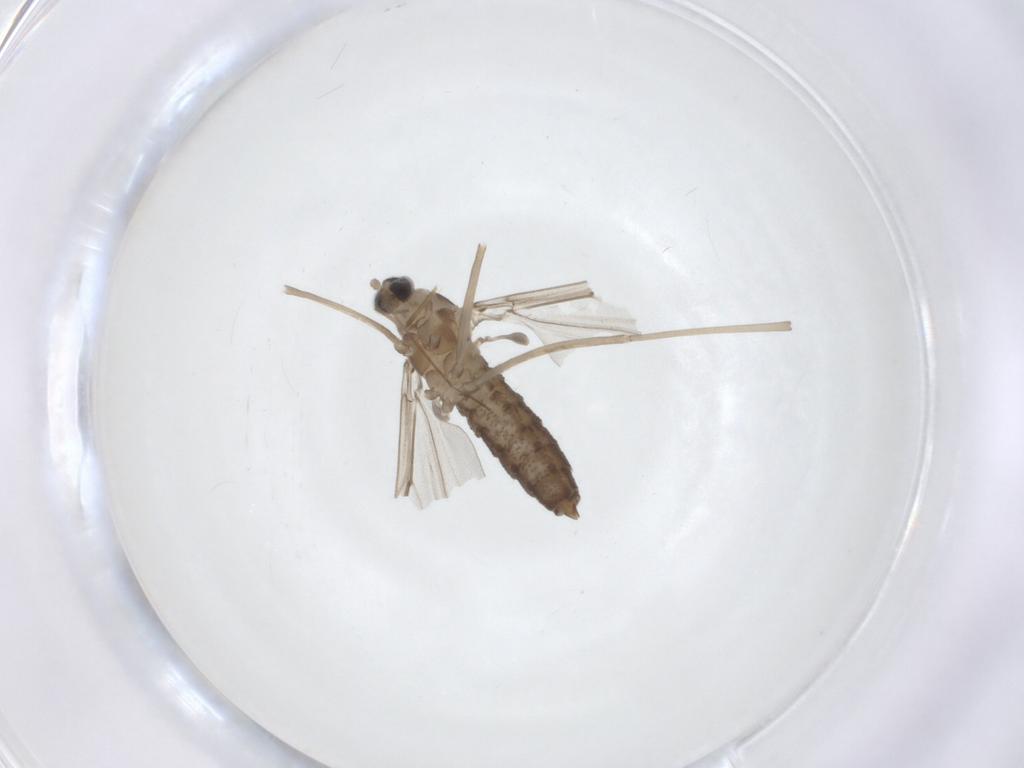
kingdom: Animalia
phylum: Arthropoda
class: Insecta
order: Diptera
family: Cecidomyiidae
